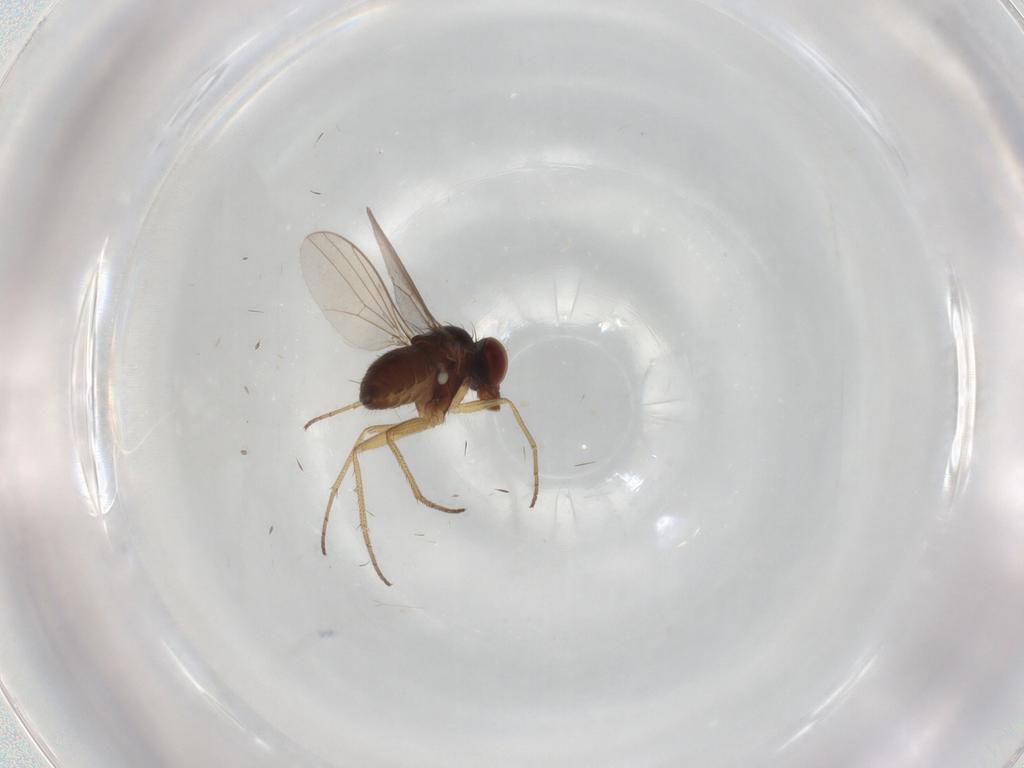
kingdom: Animalia
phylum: Arthropoda
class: Insecta
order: Diptera
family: Dolichopodidae
